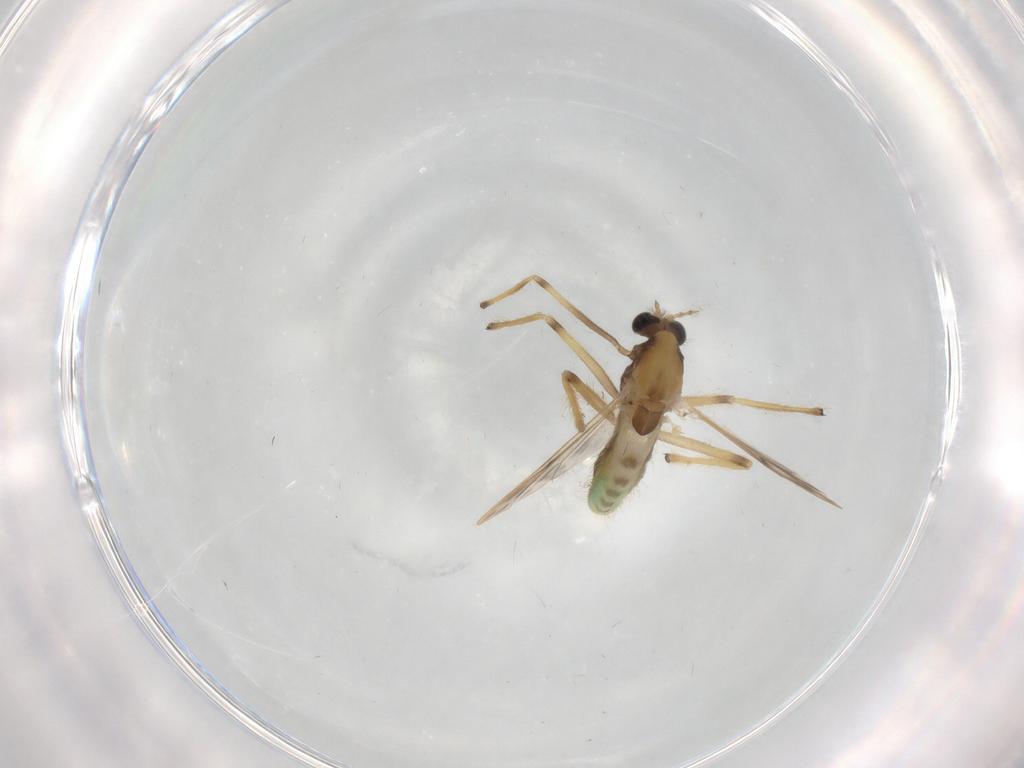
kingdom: Animalia
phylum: Arthropoda
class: Insecta
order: Diptera
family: Chironomidae
